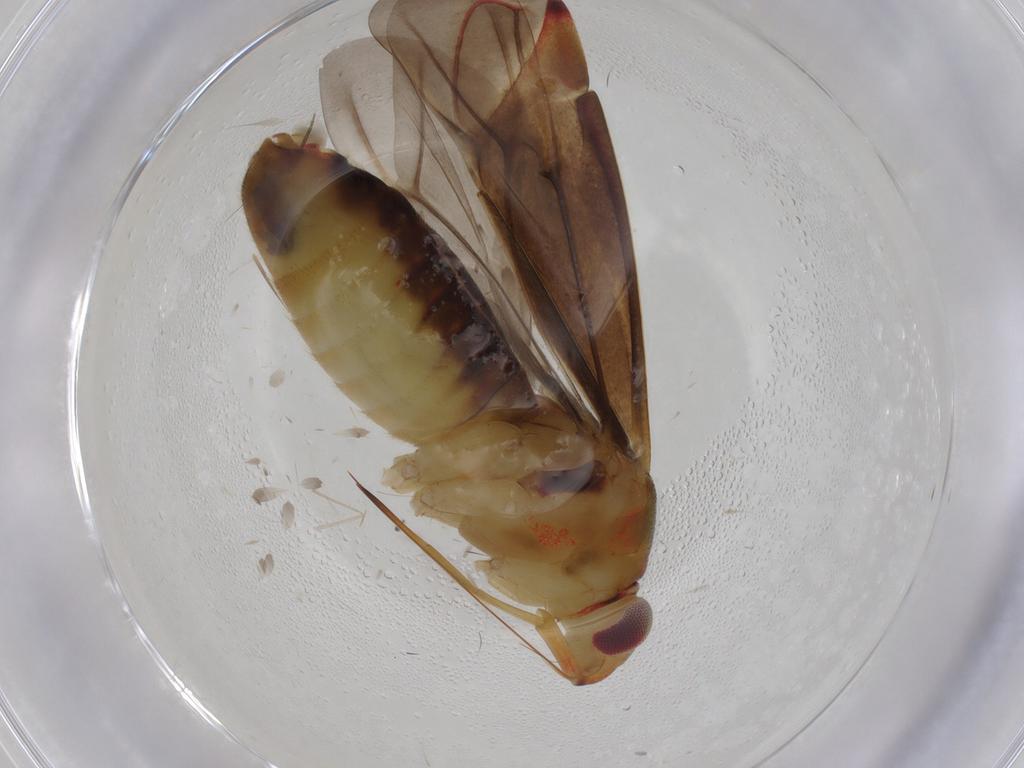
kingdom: Animalia
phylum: Arthropoda
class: Insecta
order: Hemiptera
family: Miridae
